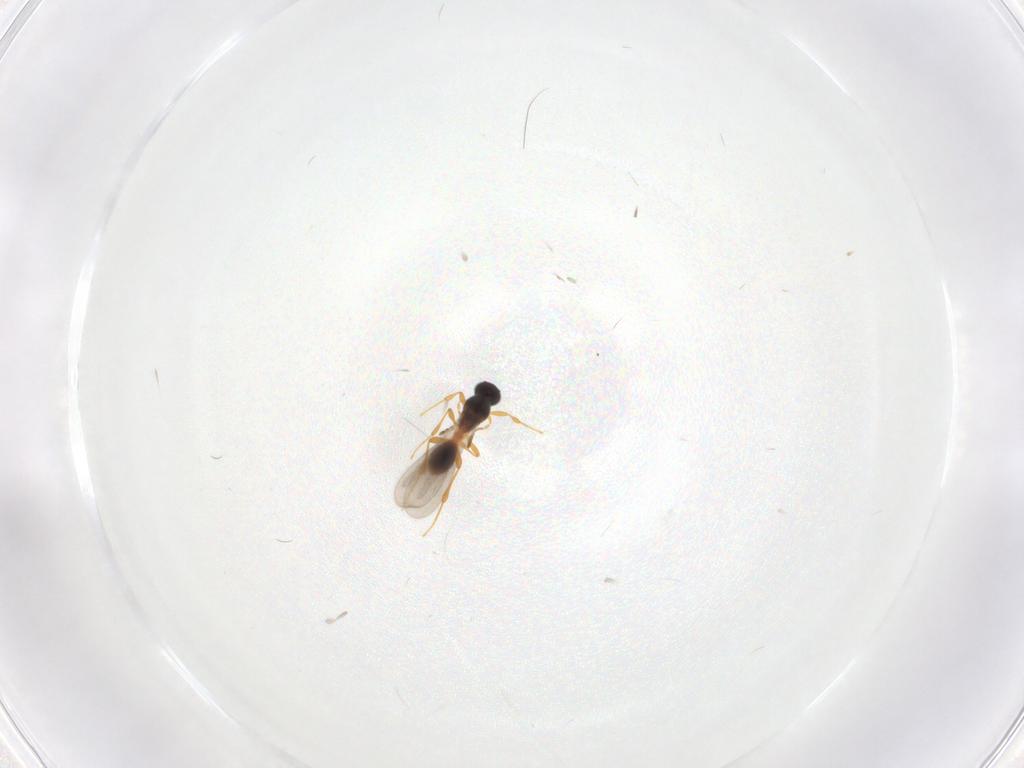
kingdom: Animalia
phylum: Arthropoda
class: Insecta
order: Hymenoptera
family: Platygastridae
